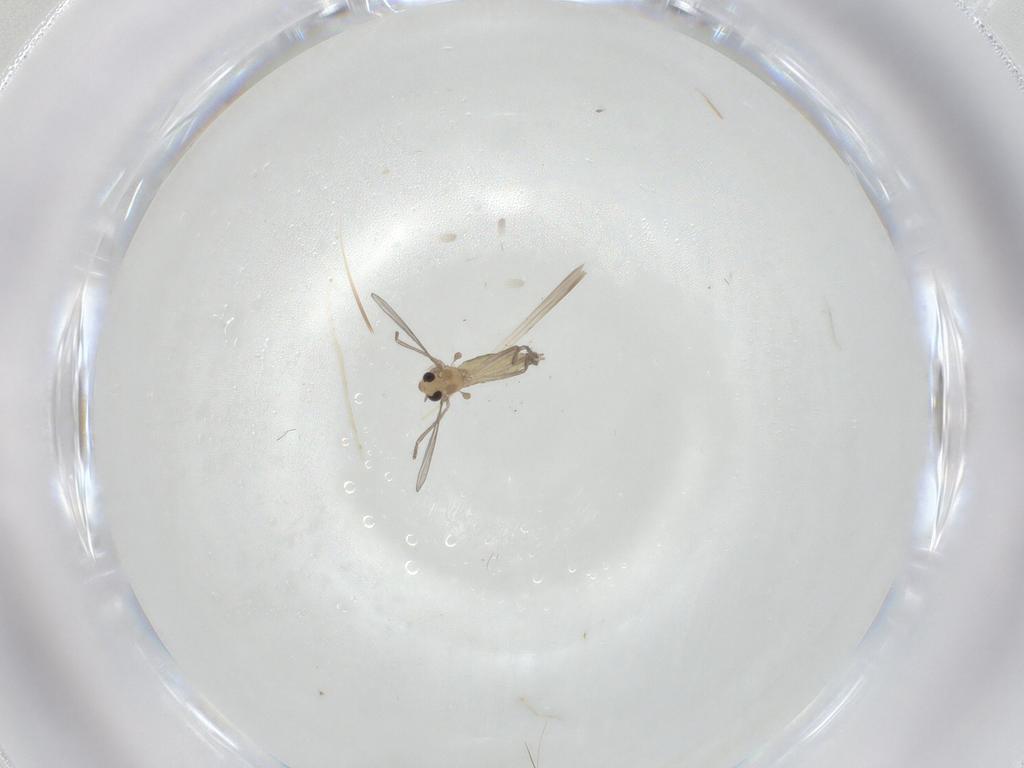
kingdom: Animalia
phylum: Arthropoda
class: Insecta
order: Diptera
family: Chironomidae
